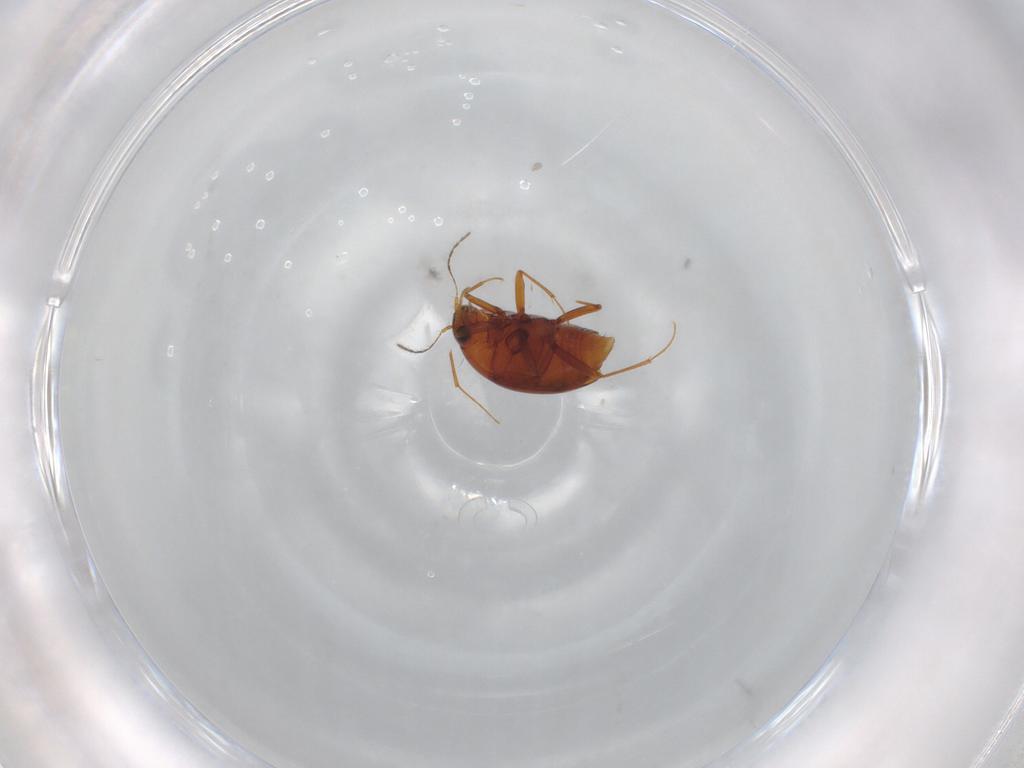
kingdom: Animalia
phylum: Arthropoda
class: Insecta
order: Coleoptera
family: Staphylinidae
